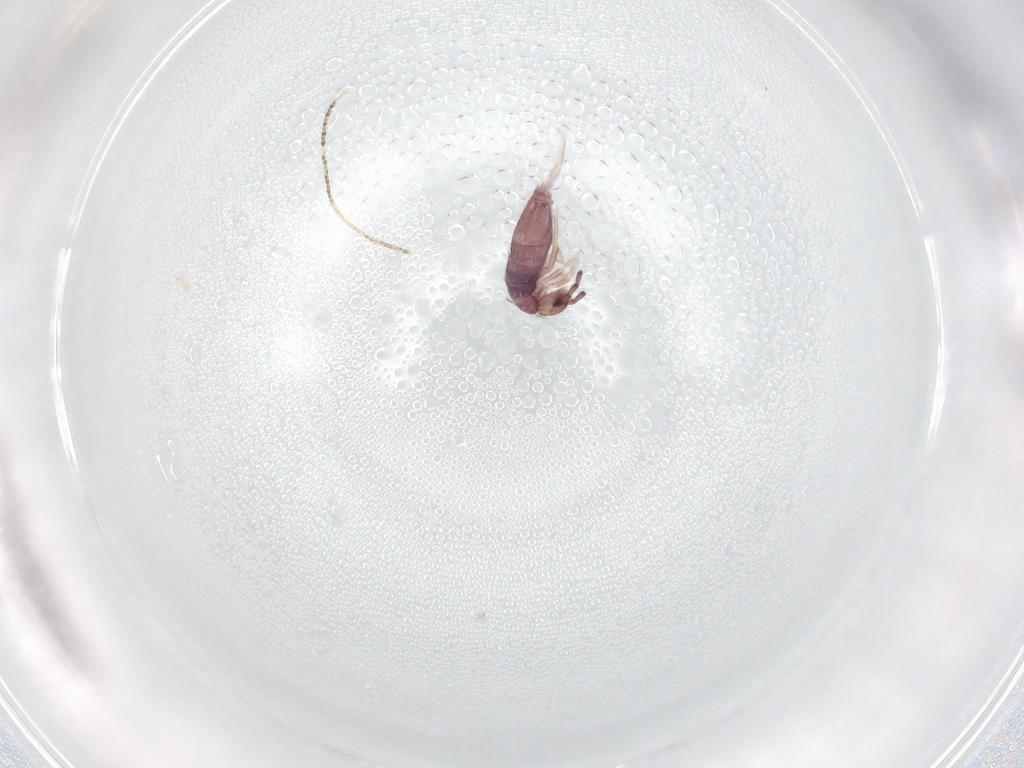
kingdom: Animalia
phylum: Arthropoda
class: Collembola
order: Entomobryomorpha
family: Entomobryidae
